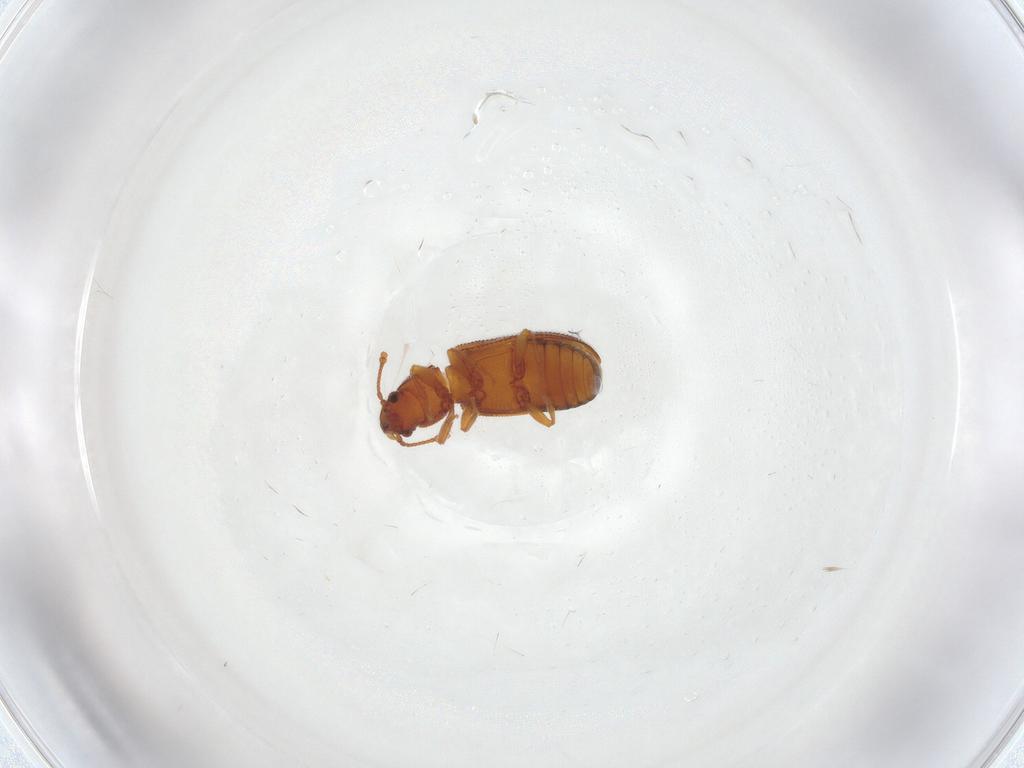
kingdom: Animalia
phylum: Arthropoda
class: Insecta
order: Coleoptera
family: Mycetophagidae
